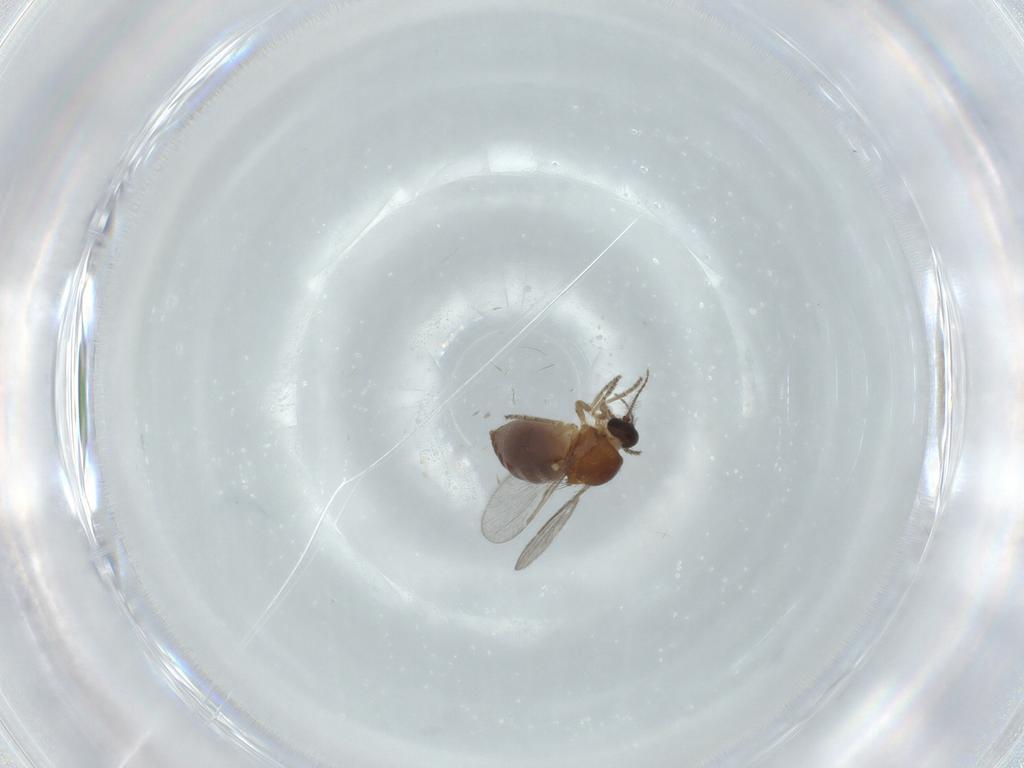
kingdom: Animalia
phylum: Arthropoda
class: Insecta
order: Diptera
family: Ceratopogonidae
